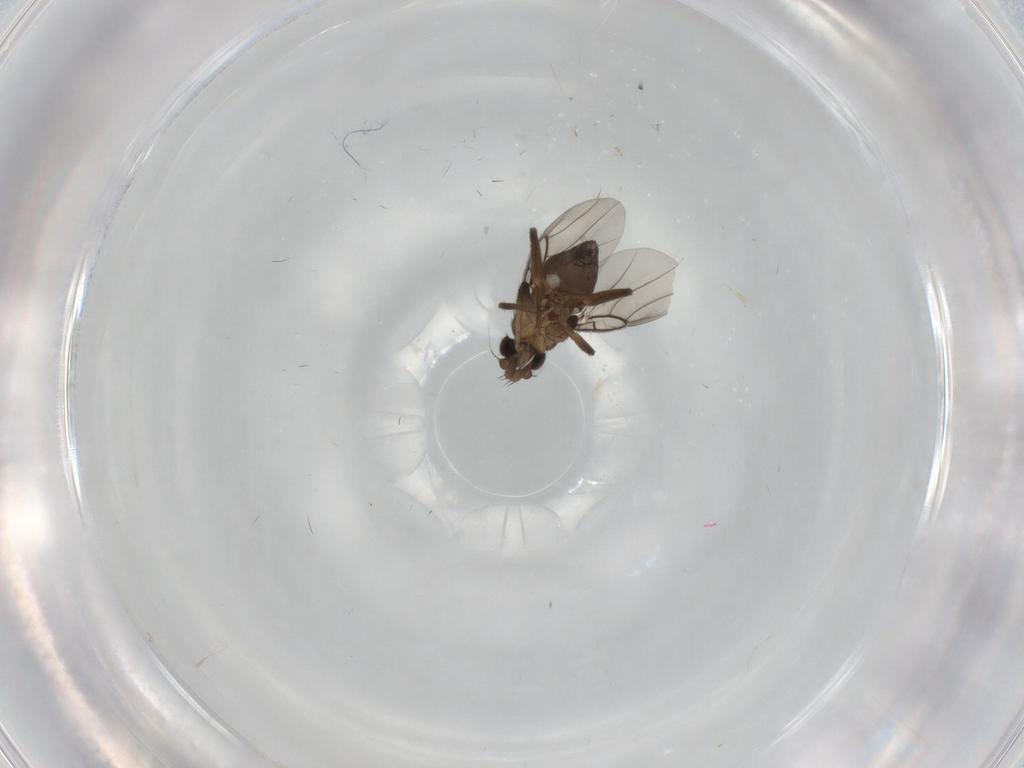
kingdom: Animalia
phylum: Arthropoda
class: Insecta
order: Diptera
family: Phoridae
